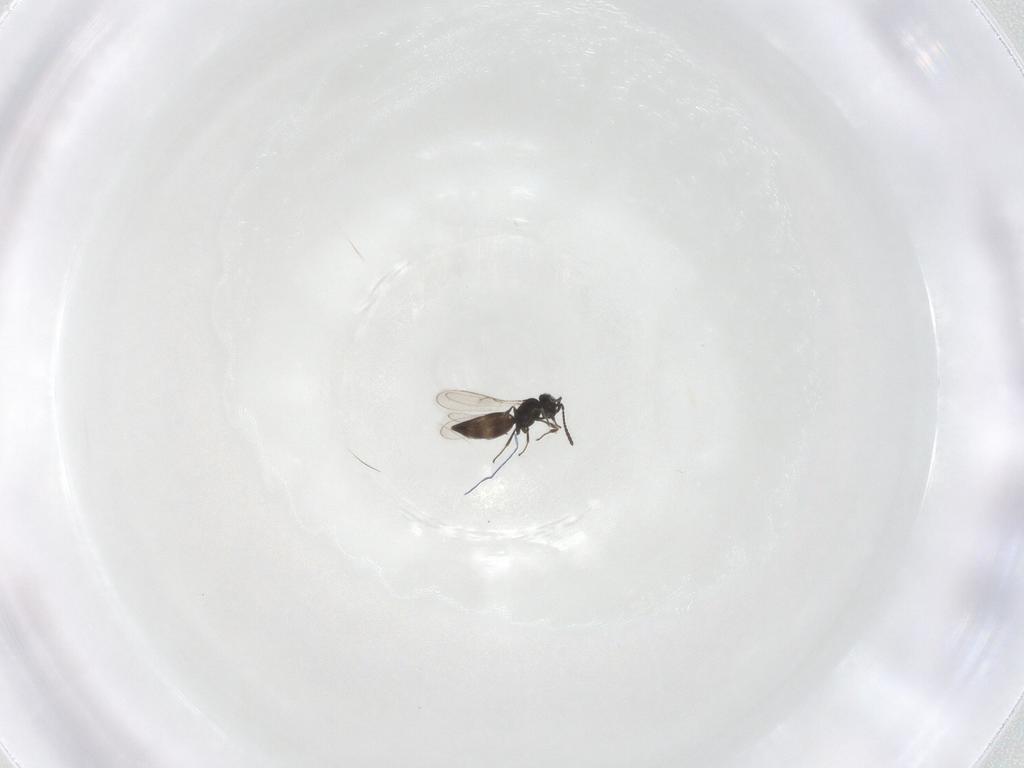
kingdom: Animalia
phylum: Arthropoda
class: Insecta
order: Hymenoptera
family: Scelionidae
